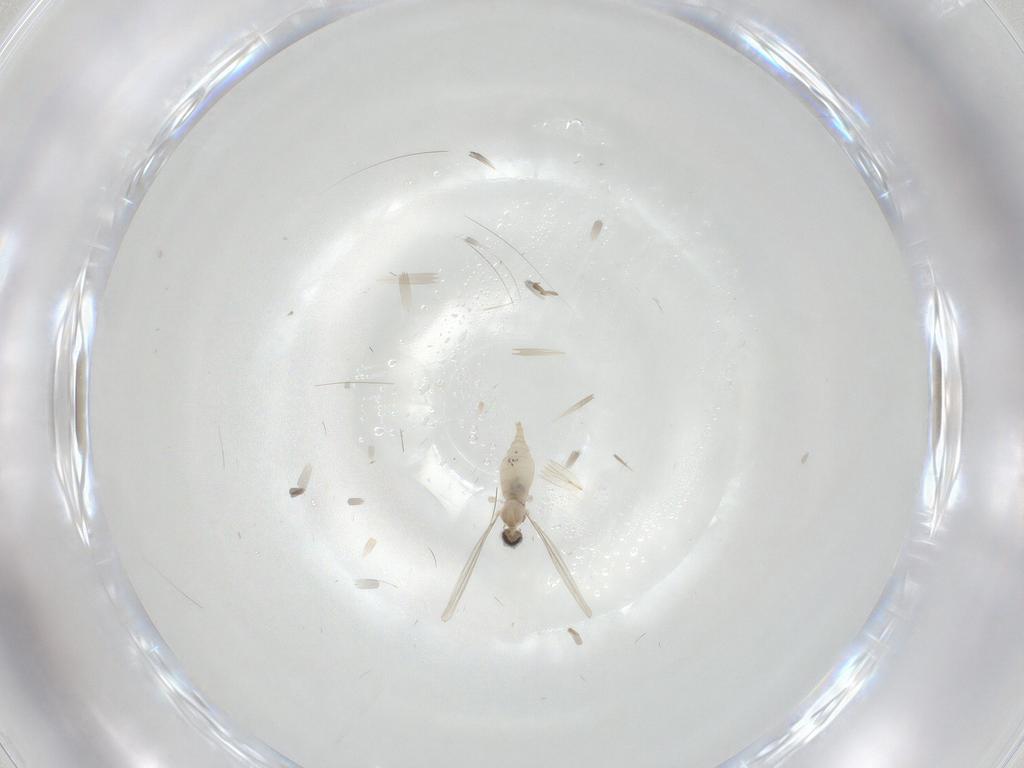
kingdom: Animalia
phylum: Arthropoda
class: Insecta
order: Diptera
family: Cecidomyiidae
